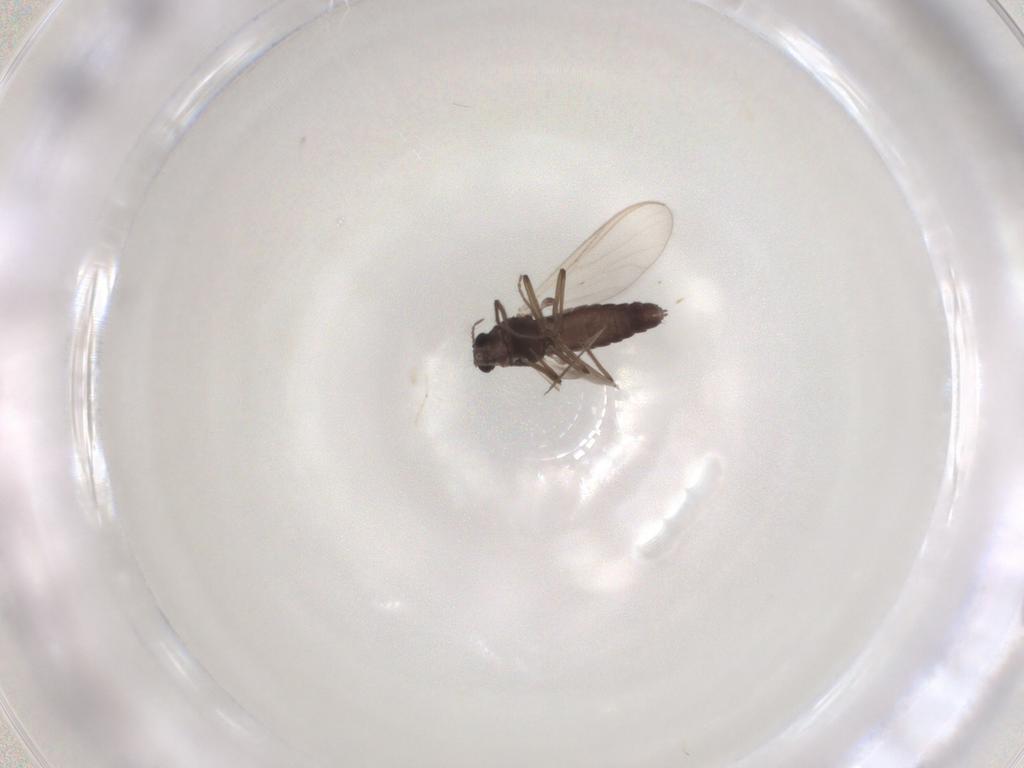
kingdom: Animalia
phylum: Arthropoda
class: Insecta
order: Diptera
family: Chironomidae
